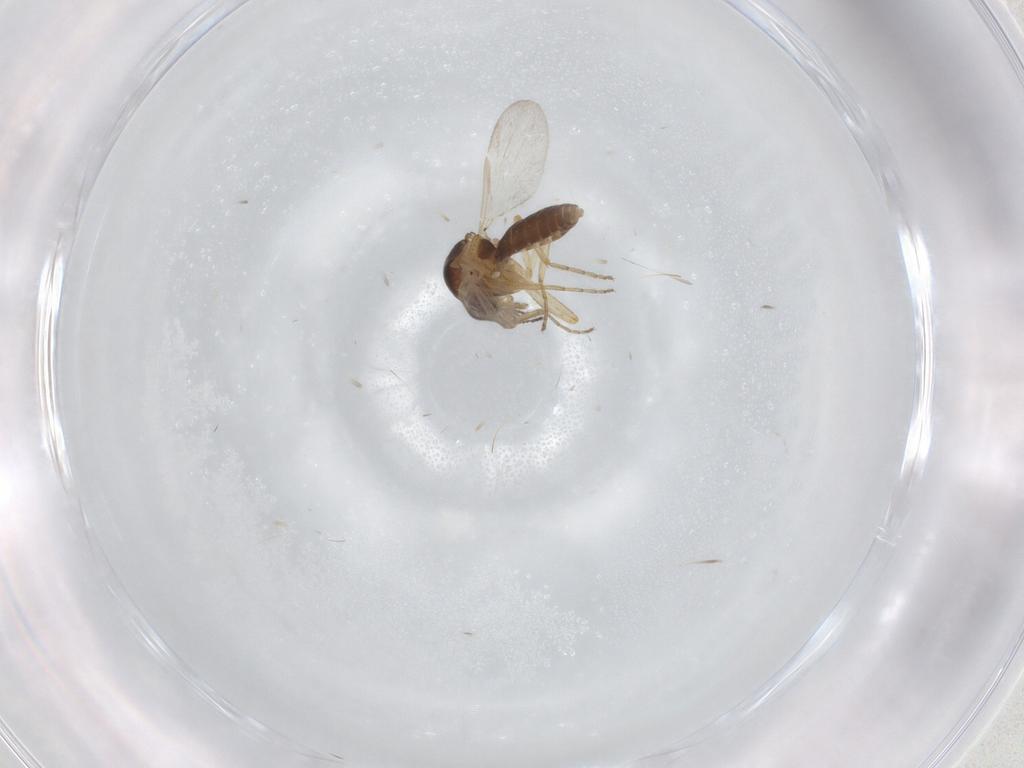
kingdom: Animalia
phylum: Arthropoda
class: Insecta
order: Diptera
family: Ceratopogonidae
